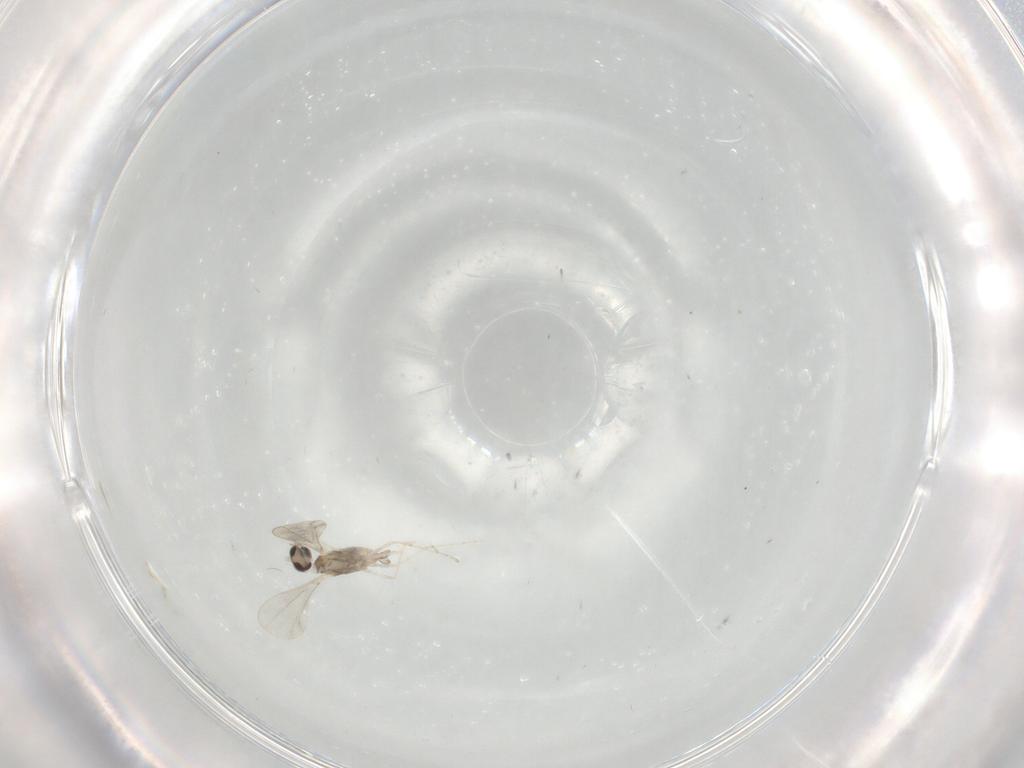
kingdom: Animalia
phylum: Arthropoda
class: Insecta
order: Diptera
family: Cecidomyiidae
